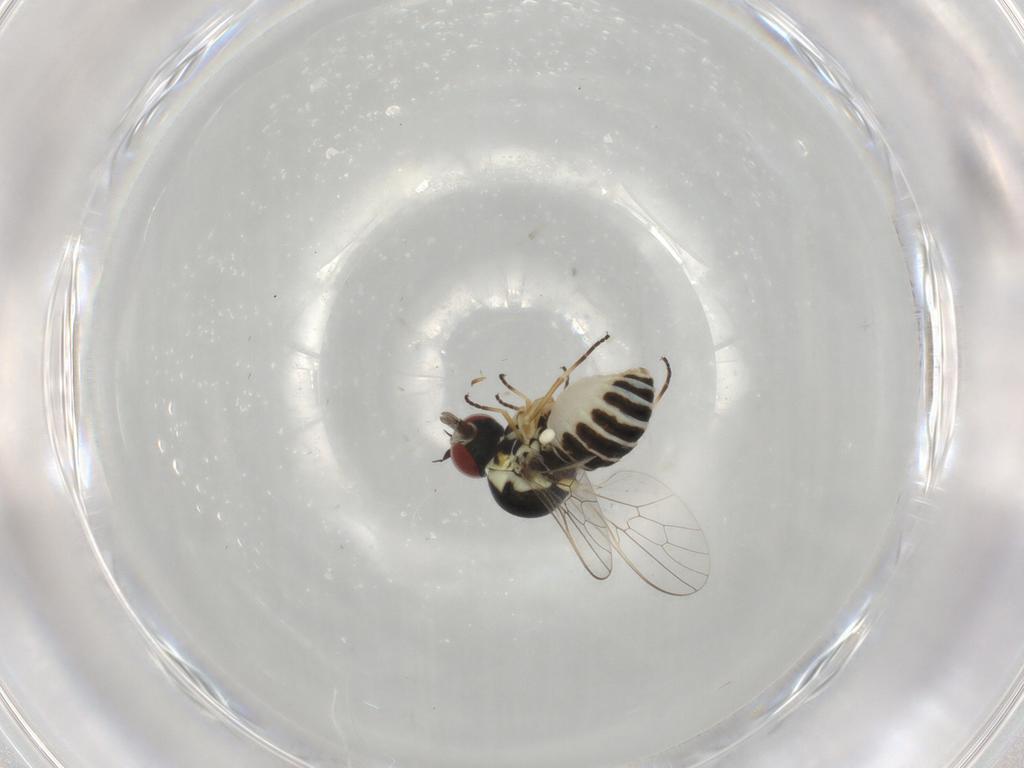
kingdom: Animalia
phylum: Arthropoda
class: Insecta
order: Diptera
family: Bombyliidae
